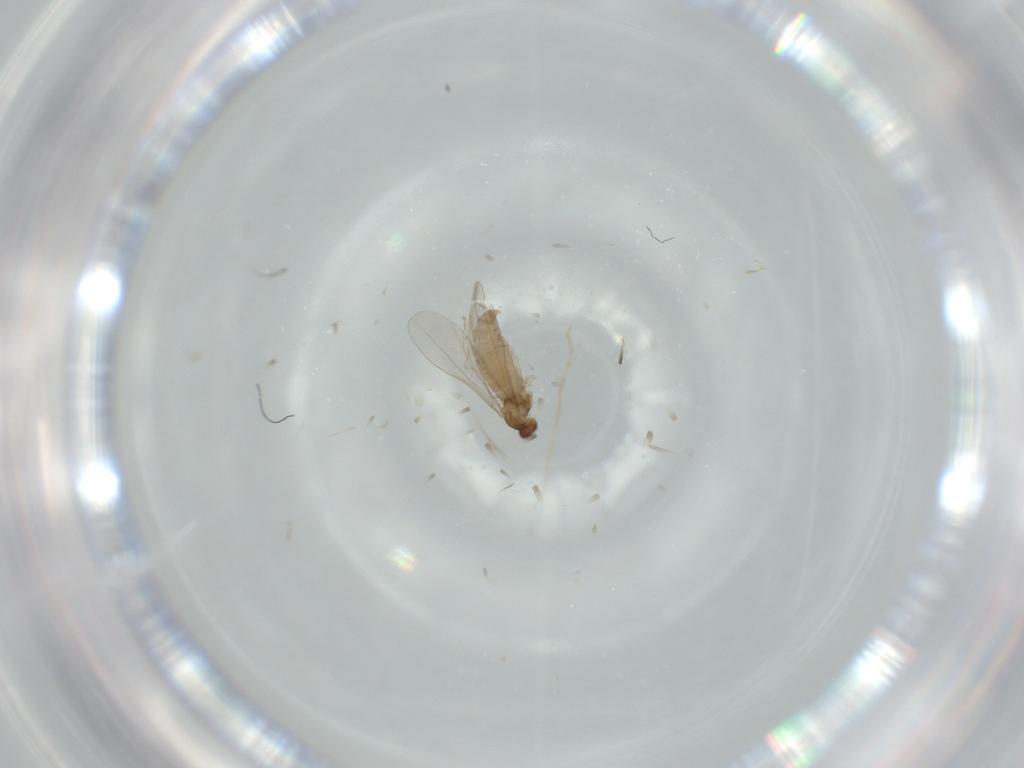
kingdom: Animalia
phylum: Arthropoda
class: Insecta
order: Diptera
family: Cecidomyiidae
